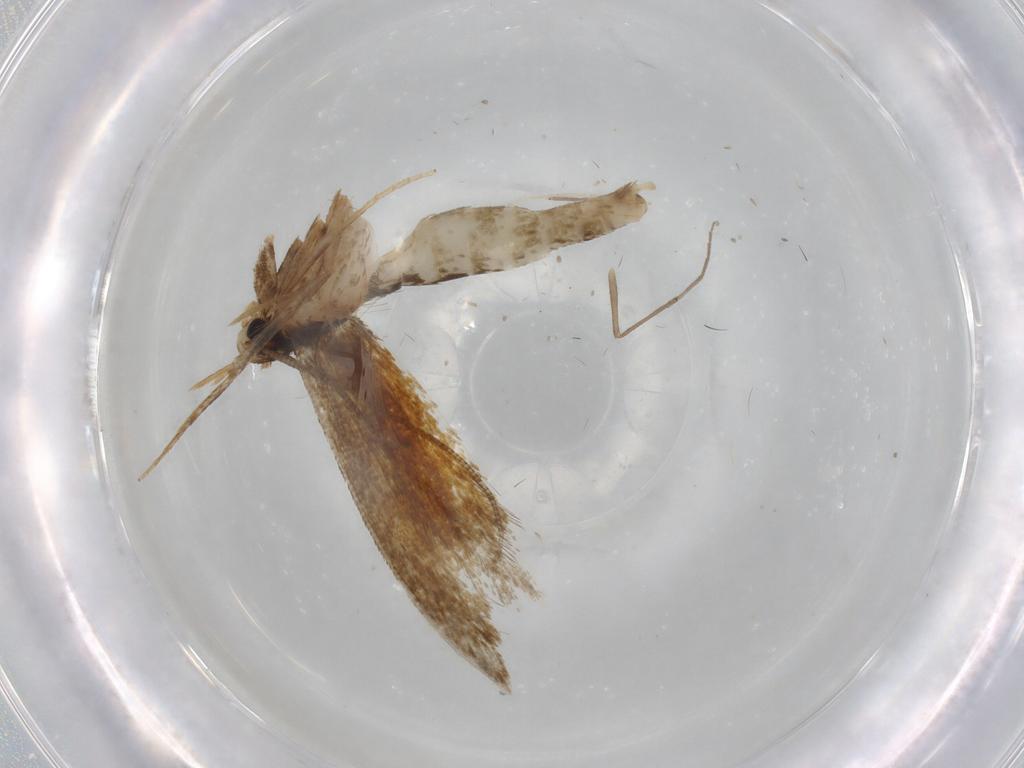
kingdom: Animalia
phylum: Arthropoda
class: Insecta
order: Lepidoptera
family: Tineidae
